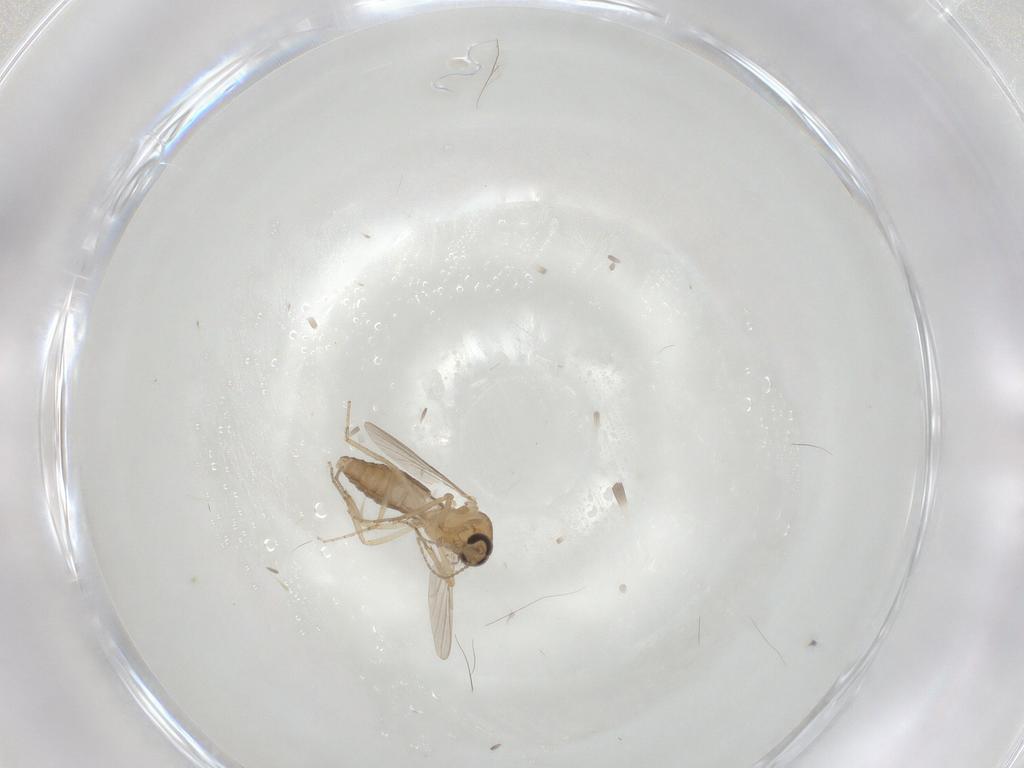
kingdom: Animalia
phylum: Arthropoda
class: Insecta
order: Diptera
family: Ceratopogonidae
